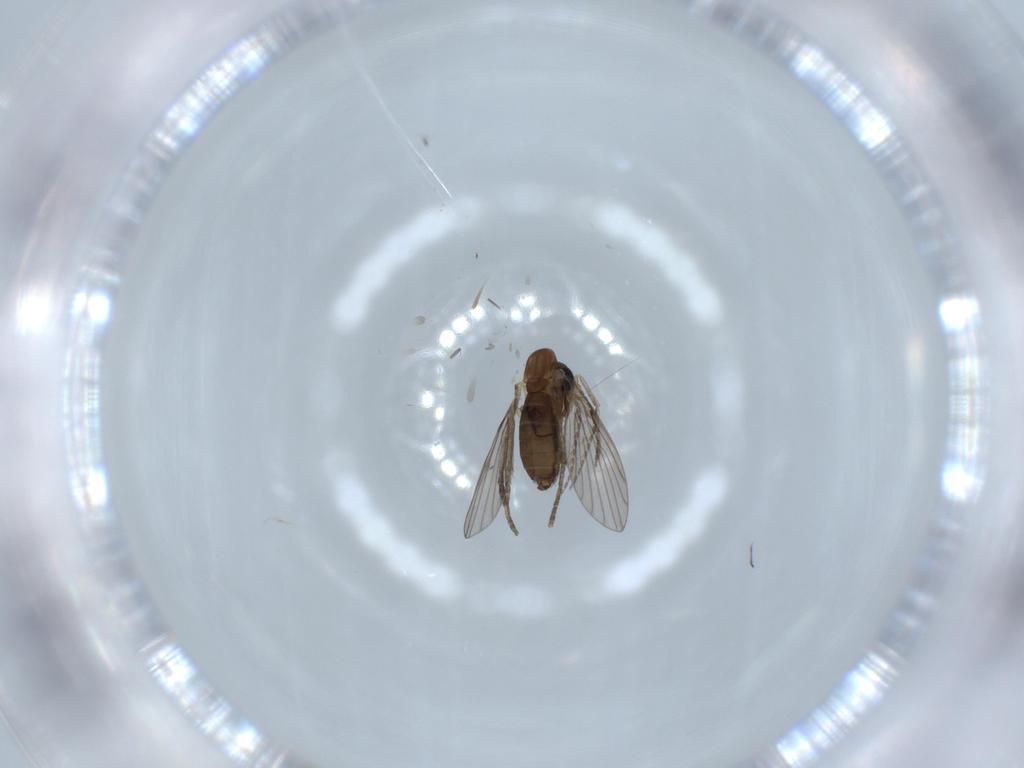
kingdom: Animalia
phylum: Arthropoda
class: Insecta
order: Diptera
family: Psychodidae
